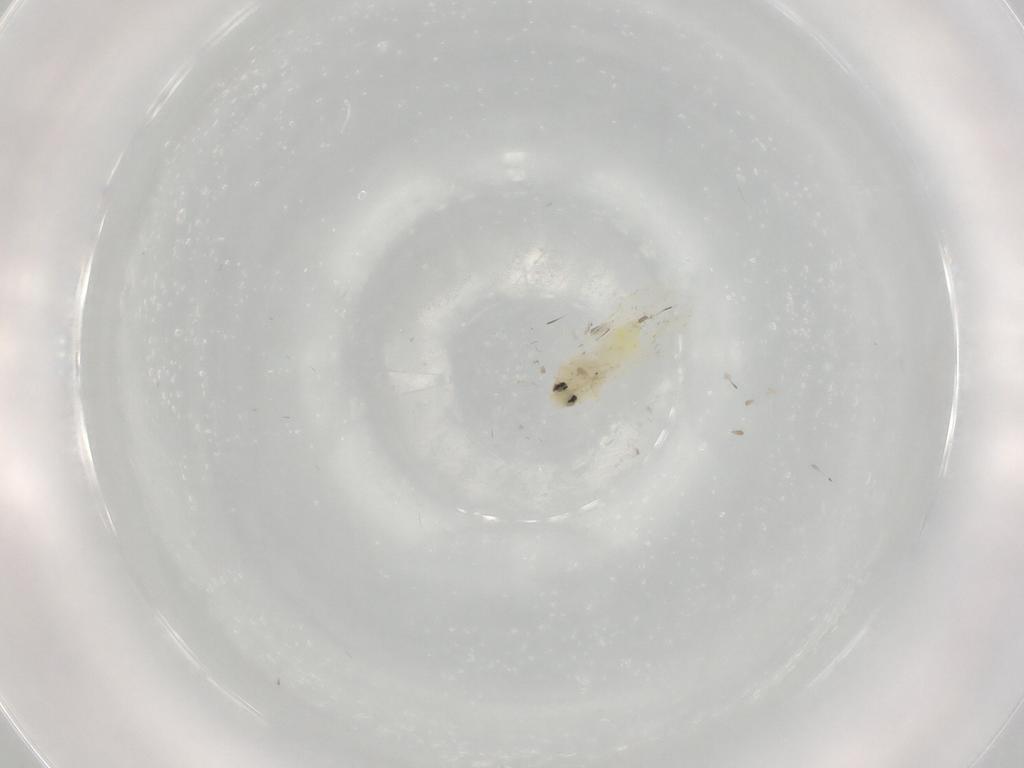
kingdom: Animalia
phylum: Arthropoda
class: Insecta
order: Hemiptera
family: Aleyrodidae
